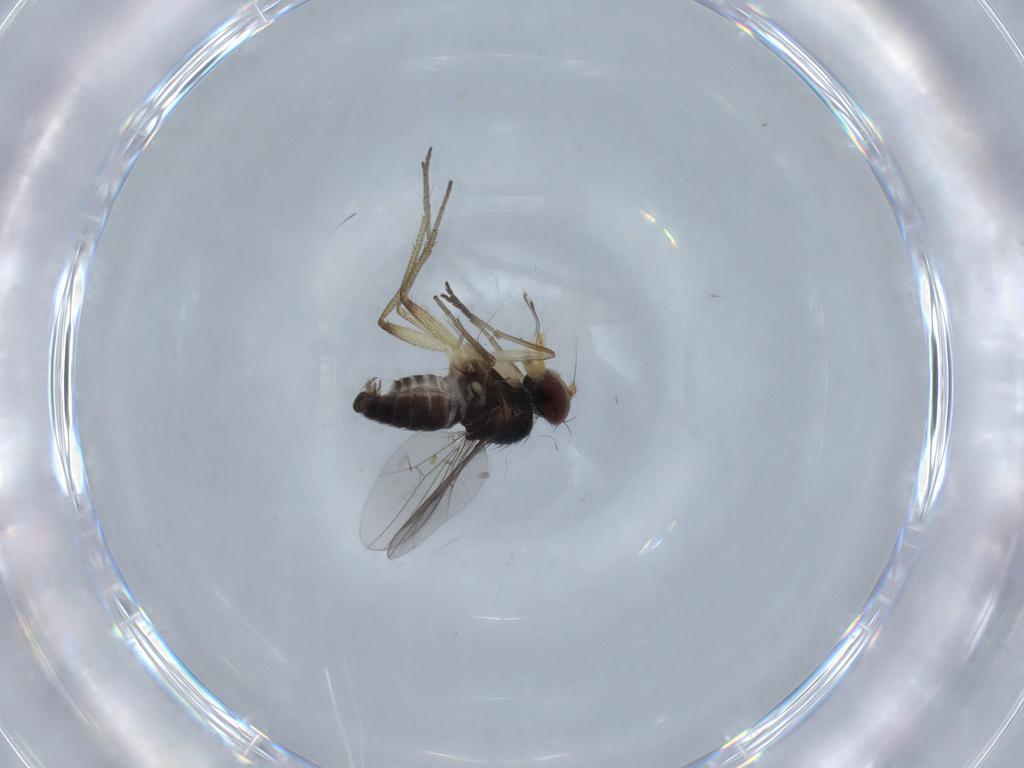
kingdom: Animalia
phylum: Arthropoda
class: Insecta
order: Diptera
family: Dolichopodidae
